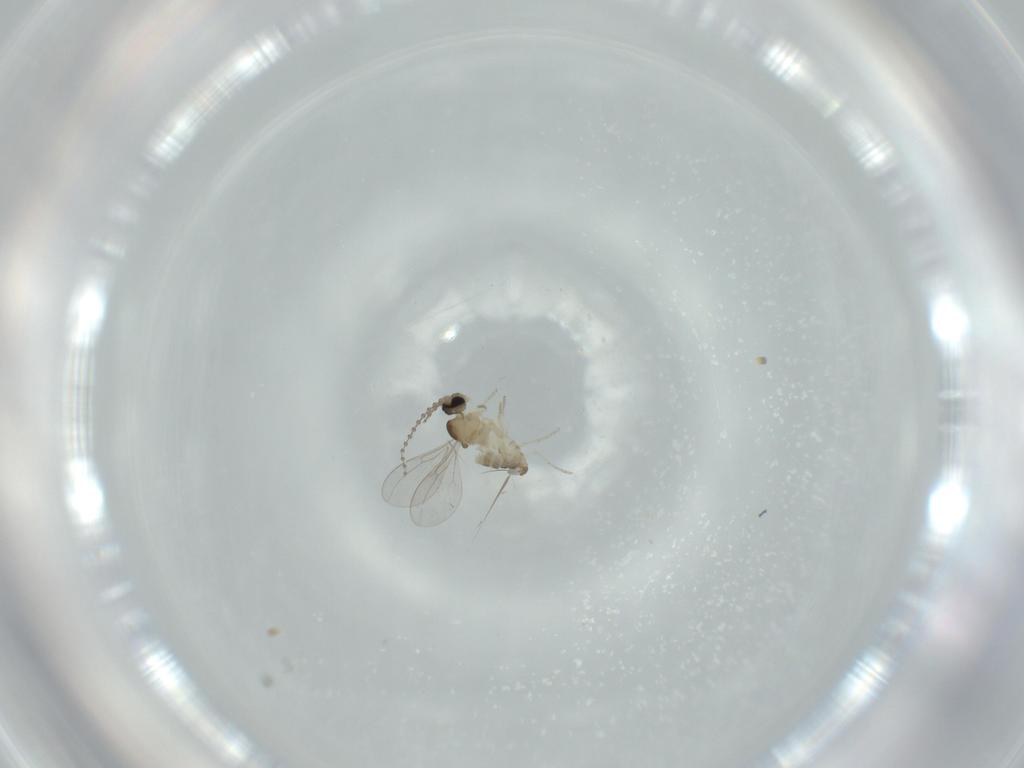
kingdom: Animalia
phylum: Arthropoda
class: Insecta
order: Diptera
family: Cecidomyiidae
